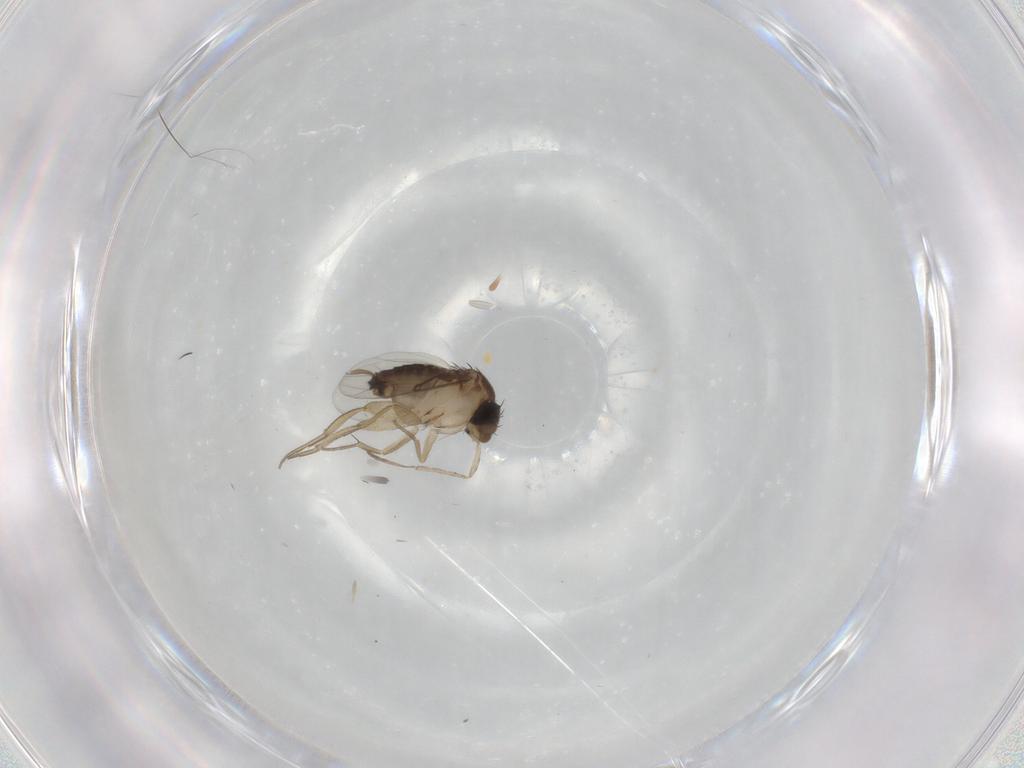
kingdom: Animalia
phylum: Arthropoda
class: Insecta
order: Diptera
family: Phoridae
